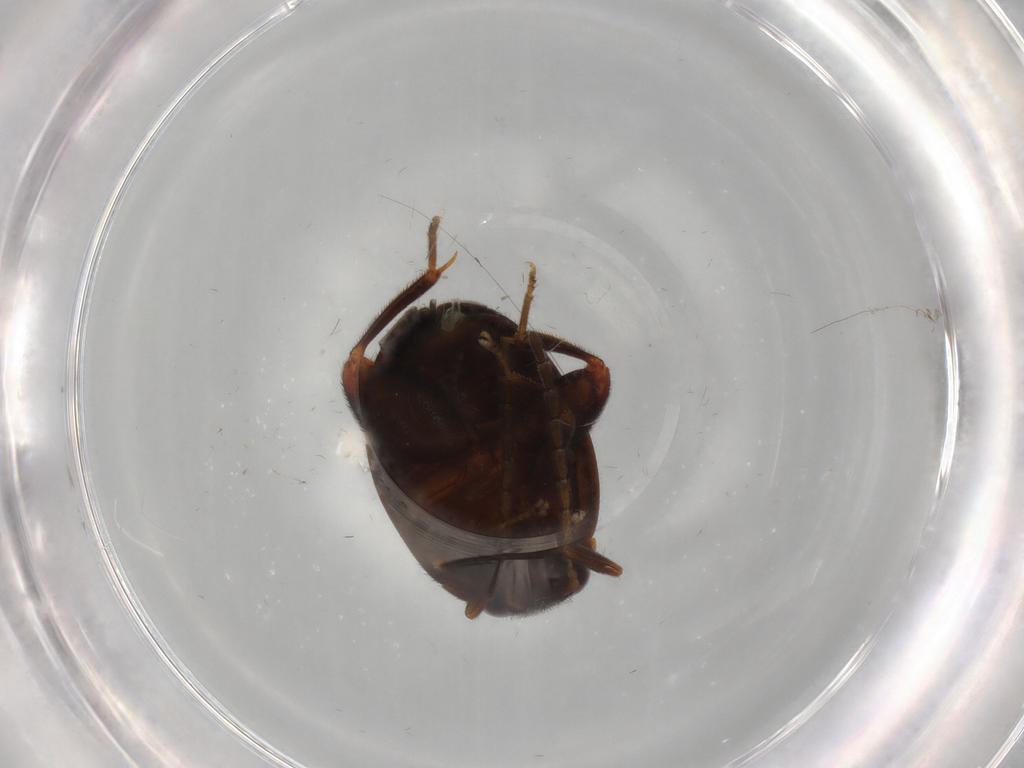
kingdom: Animalia
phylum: Arthropoda
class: Insecta
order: Coleoptera
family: Scirtidae
